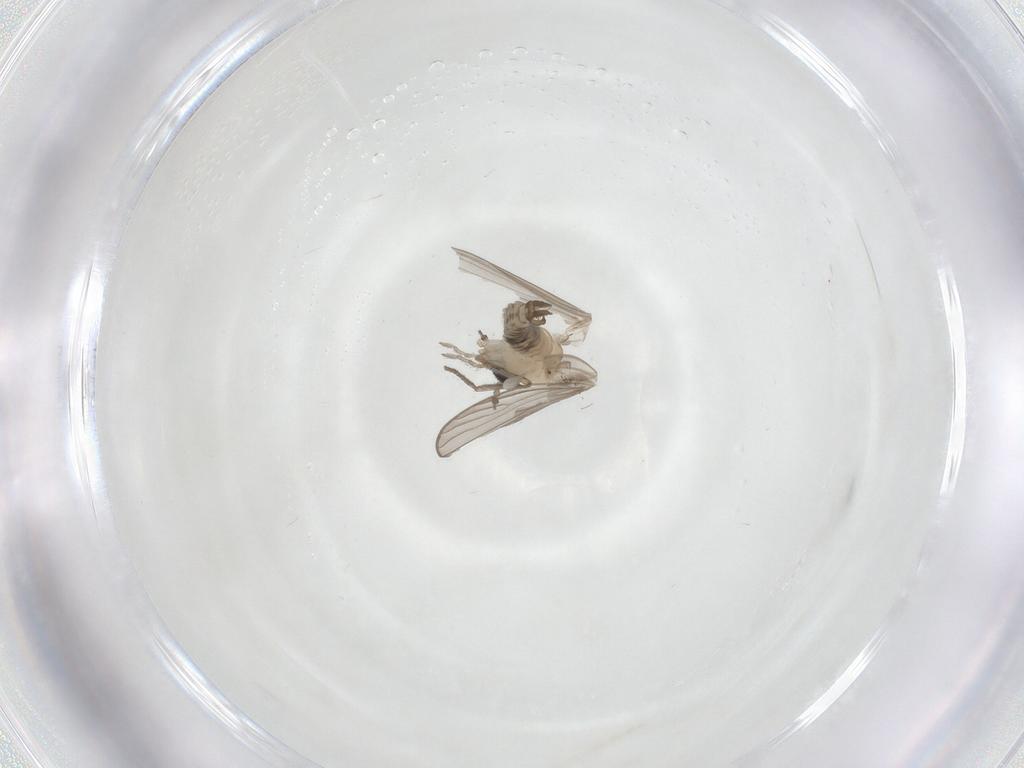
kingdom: Animalia
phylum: Arthropoda
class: Insecta
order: Diptera
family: Psychodidae
